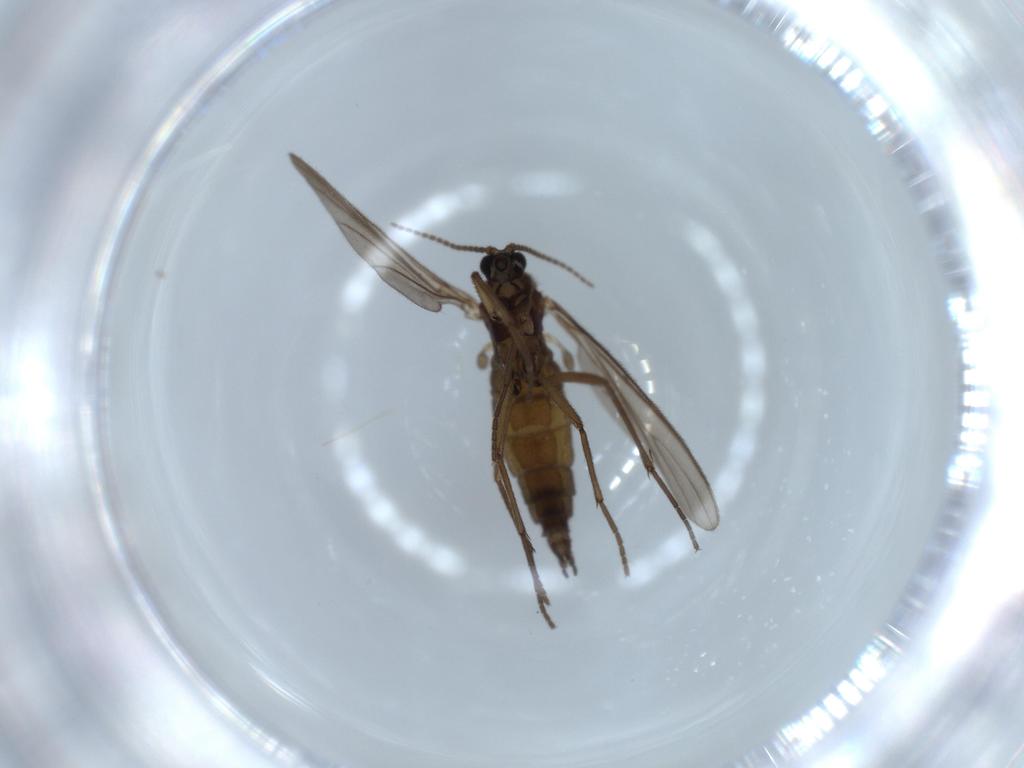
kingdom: Animalia
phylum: Arthropoda
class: Insecta
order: Diptera
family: Sciaridae
